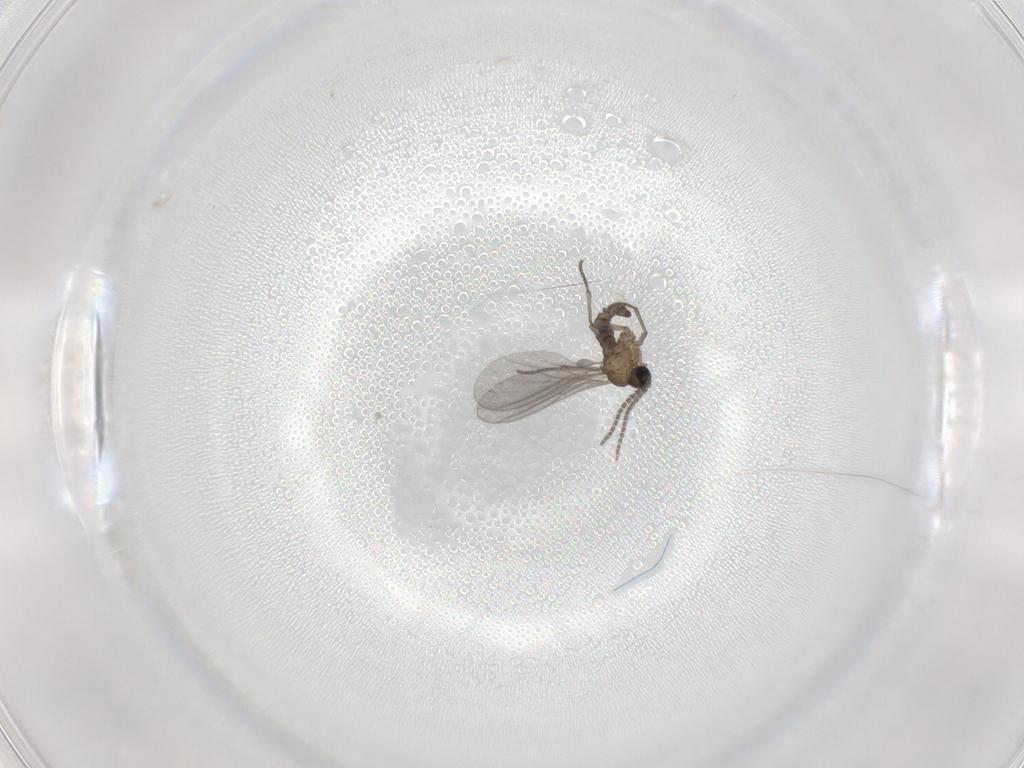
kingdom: Animalia
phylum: Arthropoda
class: Insecta
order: Diptera
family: Sciaridae
